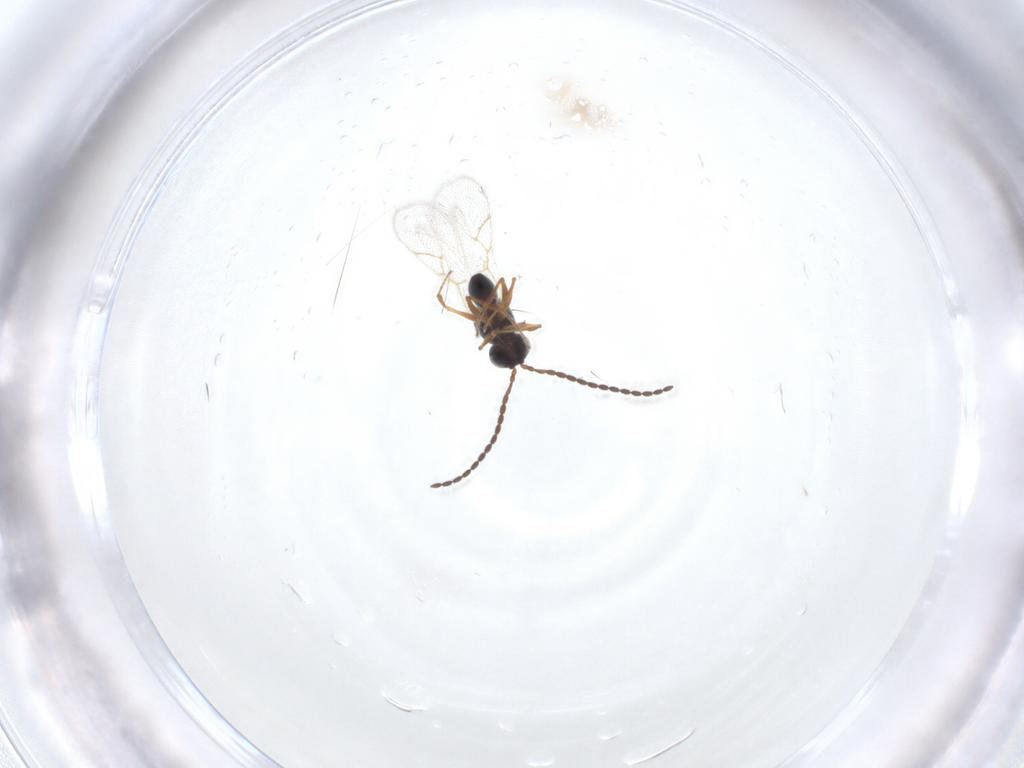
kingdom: Animalia
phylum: Arthropoda
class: Insecta
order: Hymenoptera
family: Figitidae
